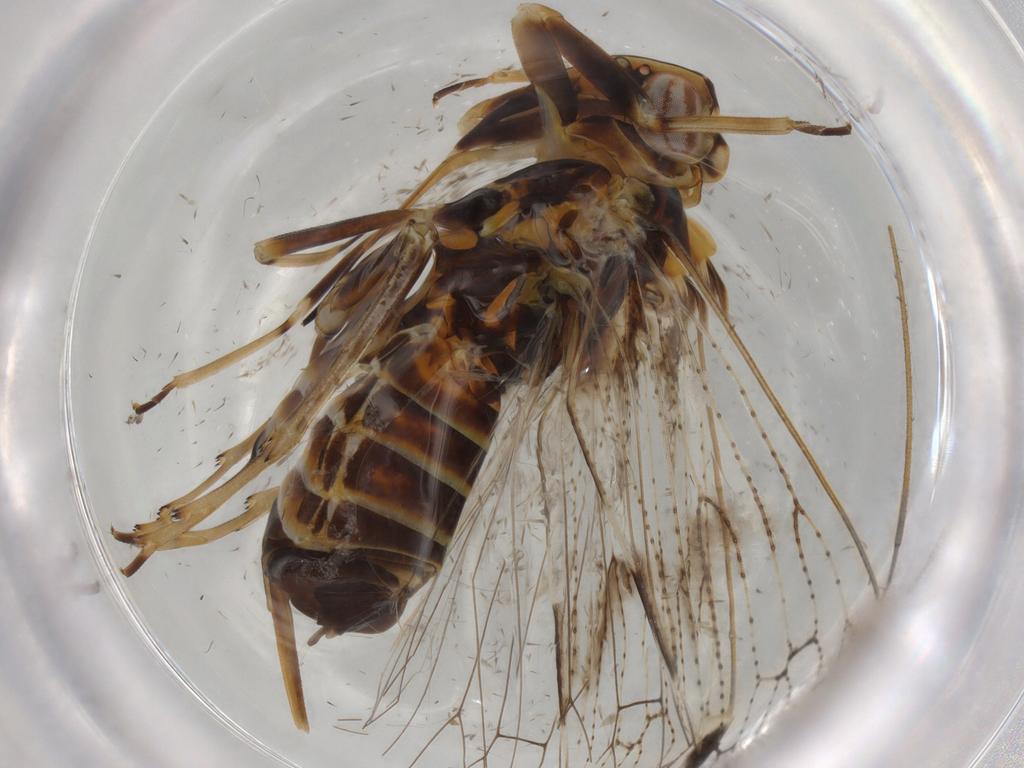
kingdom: Animalia
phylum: Arthropoda
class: Insecta
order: Hemiptera
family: Cixiidae
